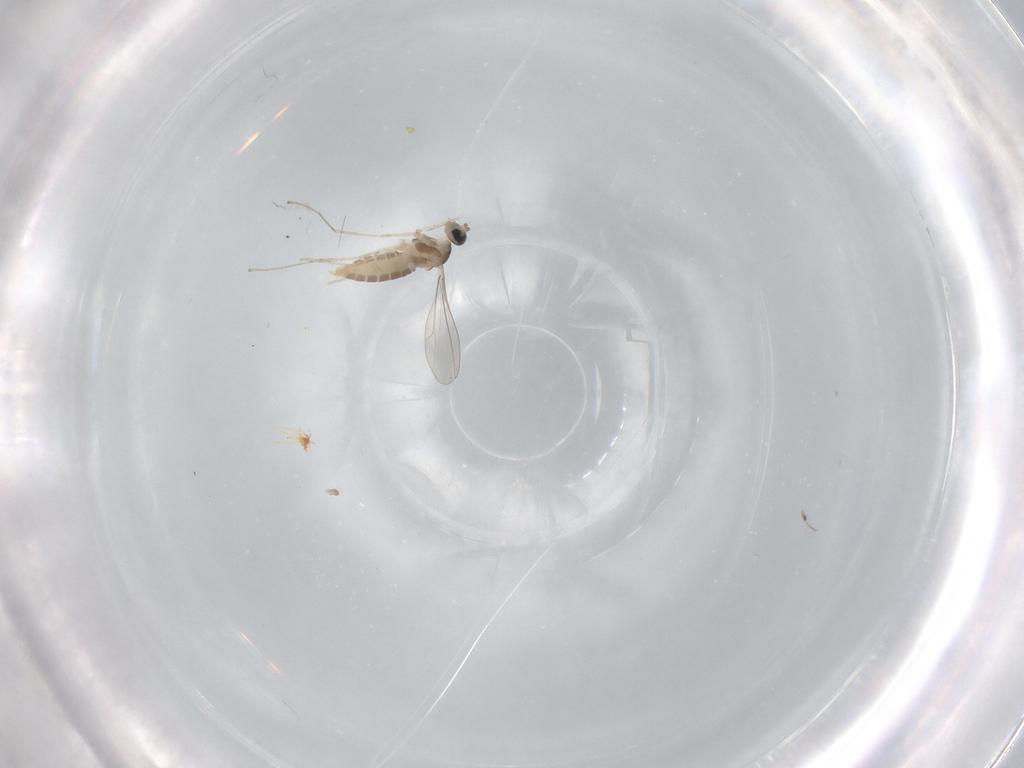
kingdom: Animalia
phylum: Arthropoda
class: Insecta
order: Diptera
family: Cecidomyiidae
